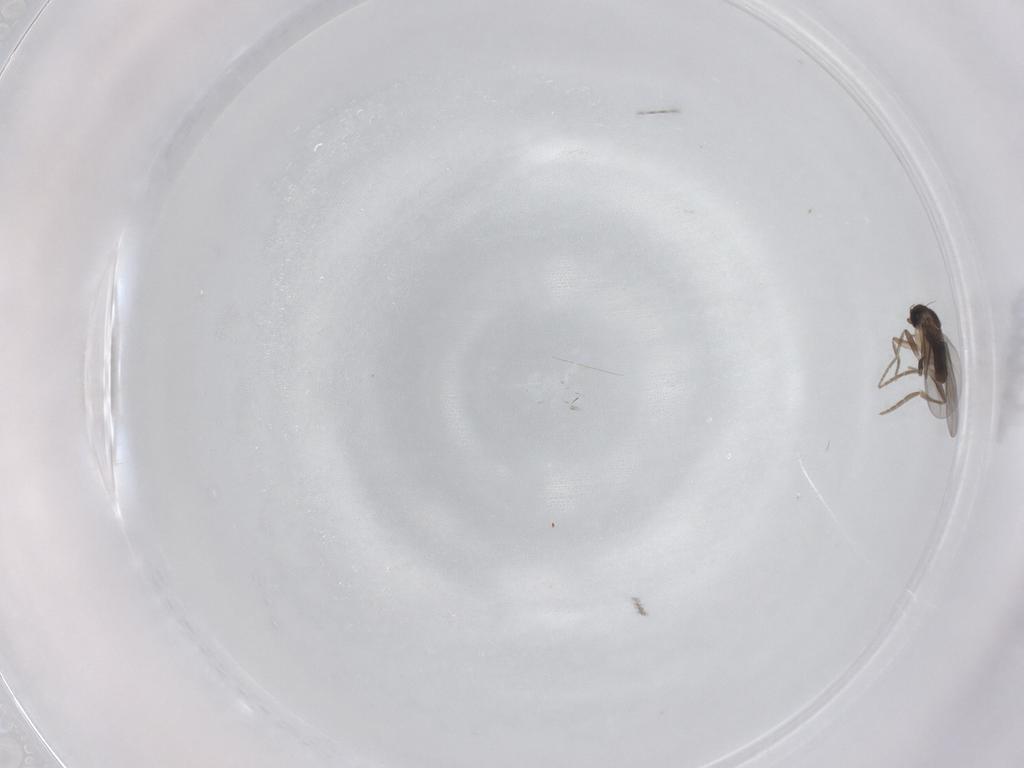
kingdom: Animalia
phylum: Arthropoda
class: Insecta
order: Diptera
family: Ceratopogonidae
